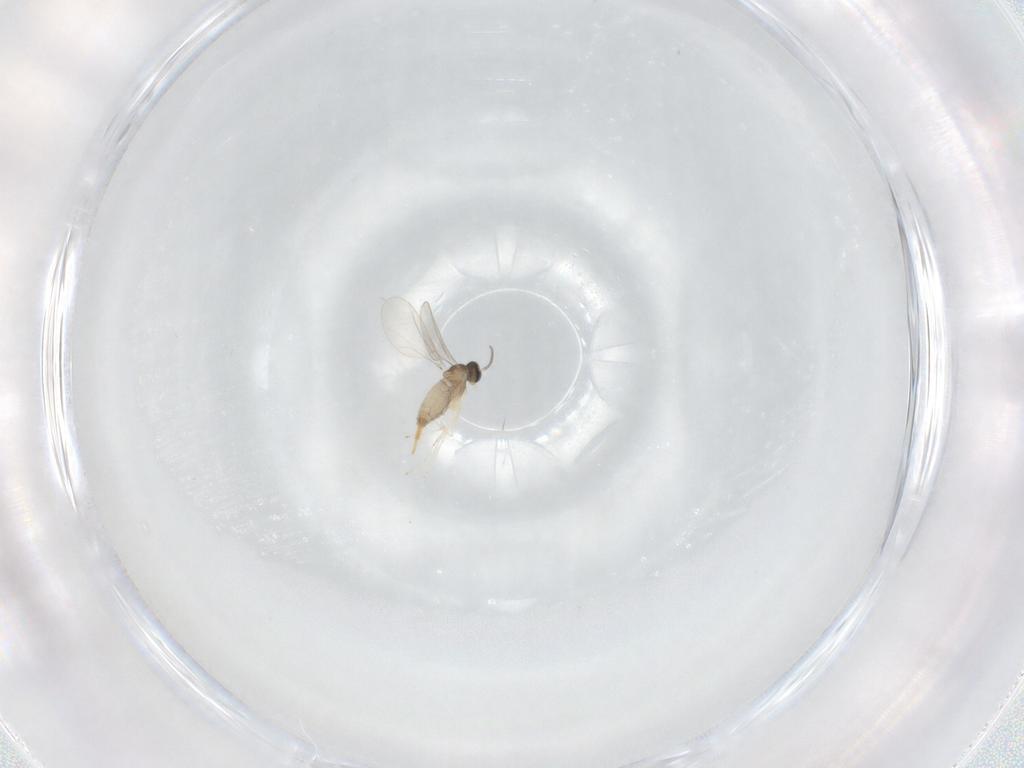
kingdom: Animalia
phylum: Arthropoda
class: Insecta
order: Diptera
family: Cecidomyiidae
